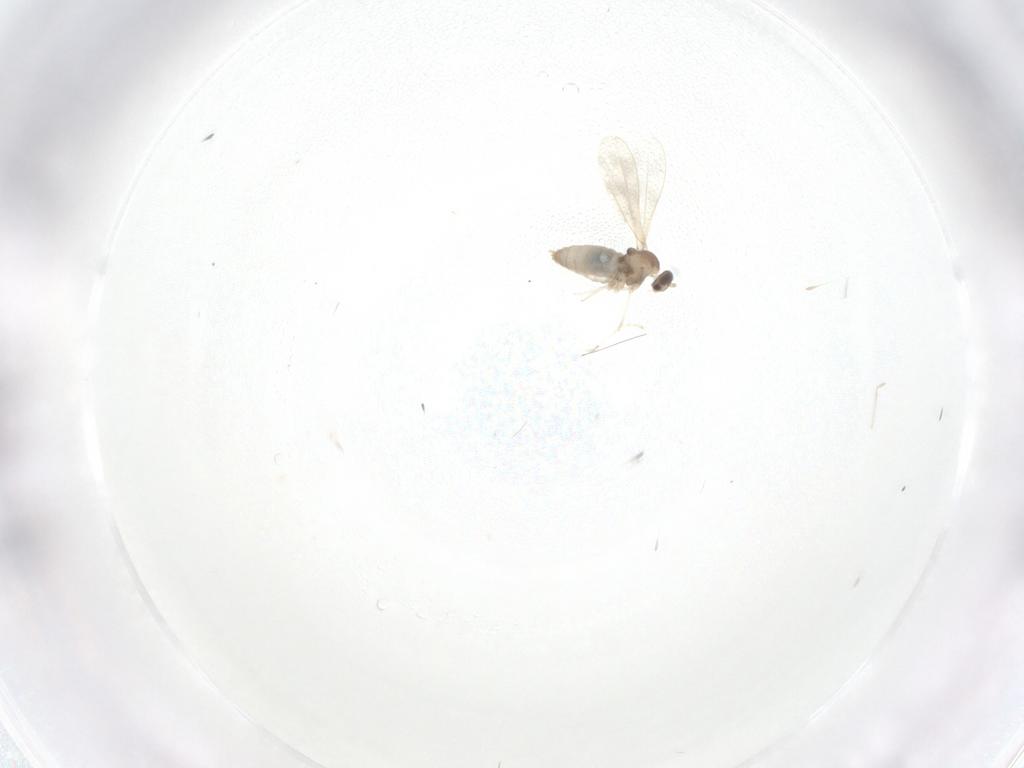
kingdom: Animalia
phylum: Arthropoda
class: Insecta
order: Diptera
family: Cecidomyiidae
